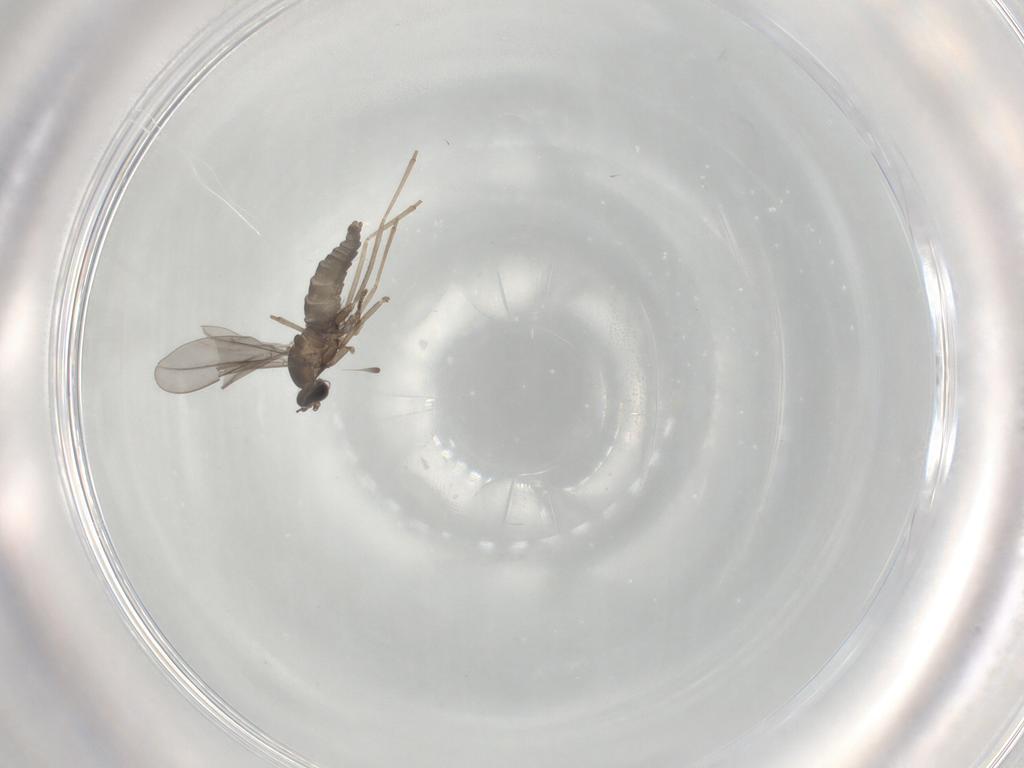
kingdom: Animalia
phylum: Arthropoda
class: Insecta
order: Diptera
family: Psychodidae
